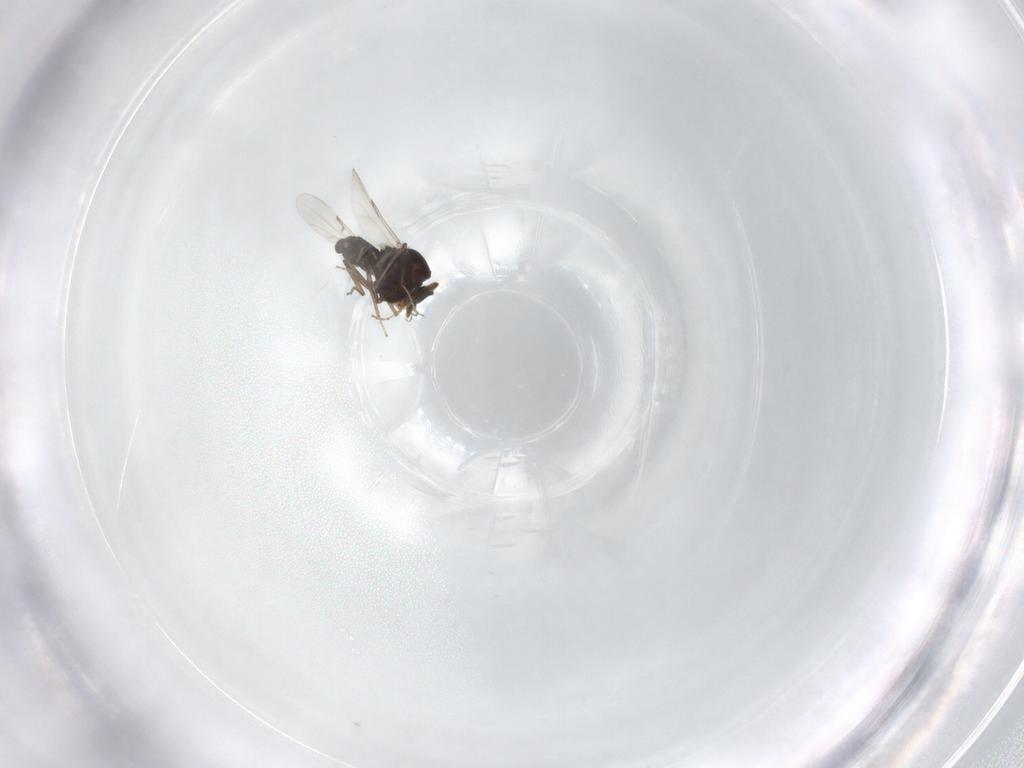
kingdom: Animalia
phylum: Arthropoda
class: Insecta
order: Diptera
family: Ceratopogonidae
